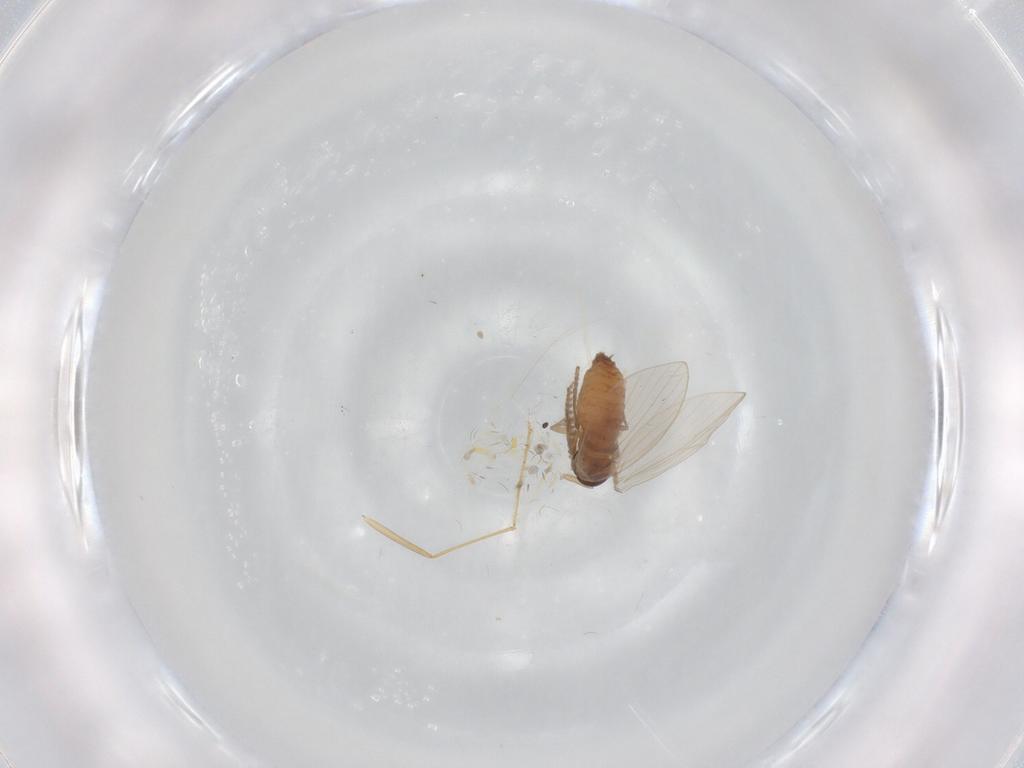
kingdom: Animalia
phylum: Arthropoda
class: Insecta
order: Diptera
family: Psychodidae
